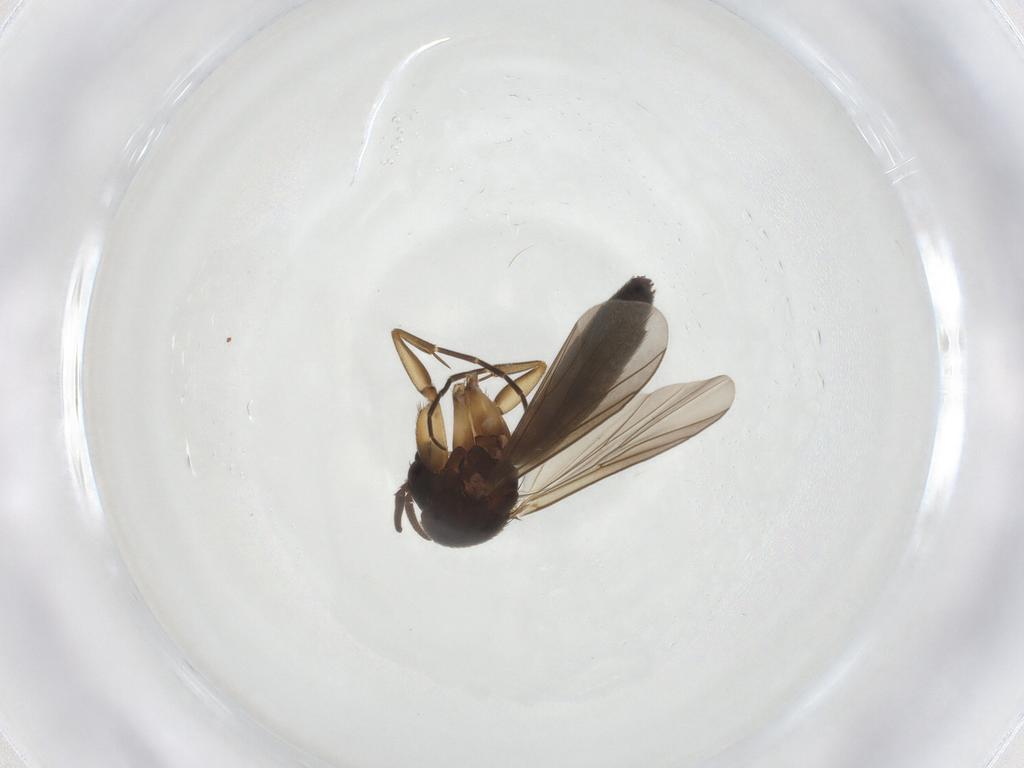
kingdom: Animalia
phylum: Arthropoda
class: Insecta
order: Diptera
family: Mycetophilidae
